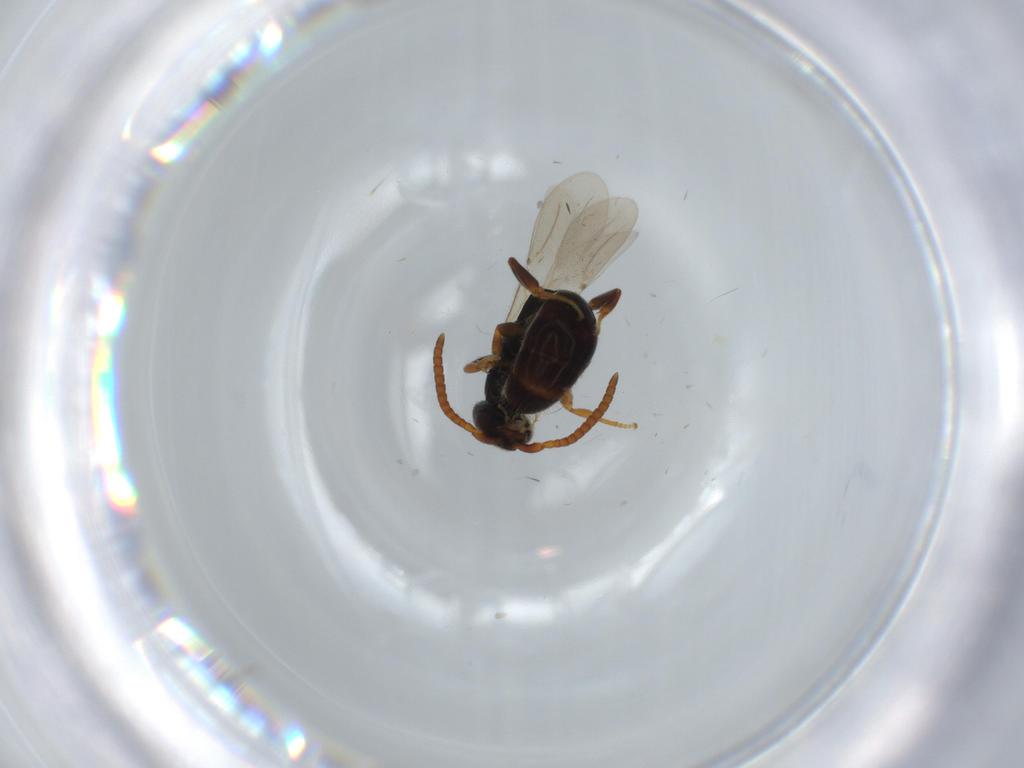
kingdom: Animalia
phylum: Arthropoda
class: Insecta
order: Hymenoptera
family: Bethylidae
